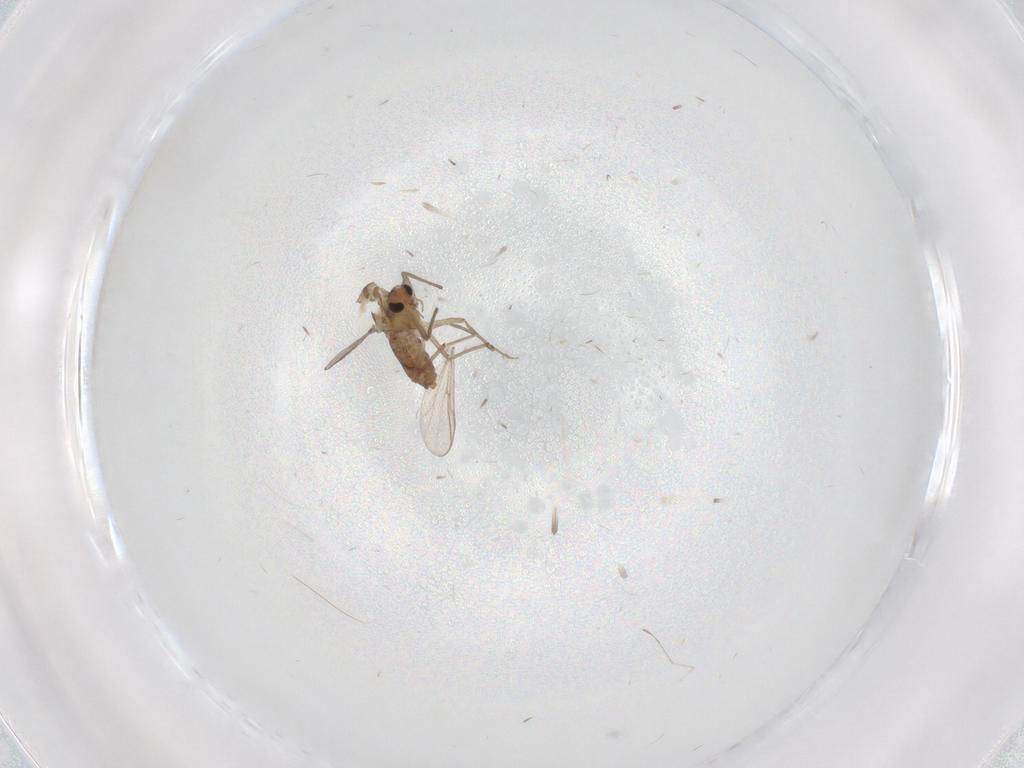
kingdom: Animalia
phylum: Arthropoda
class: Insecta
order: Diptera
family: Chironomidae
